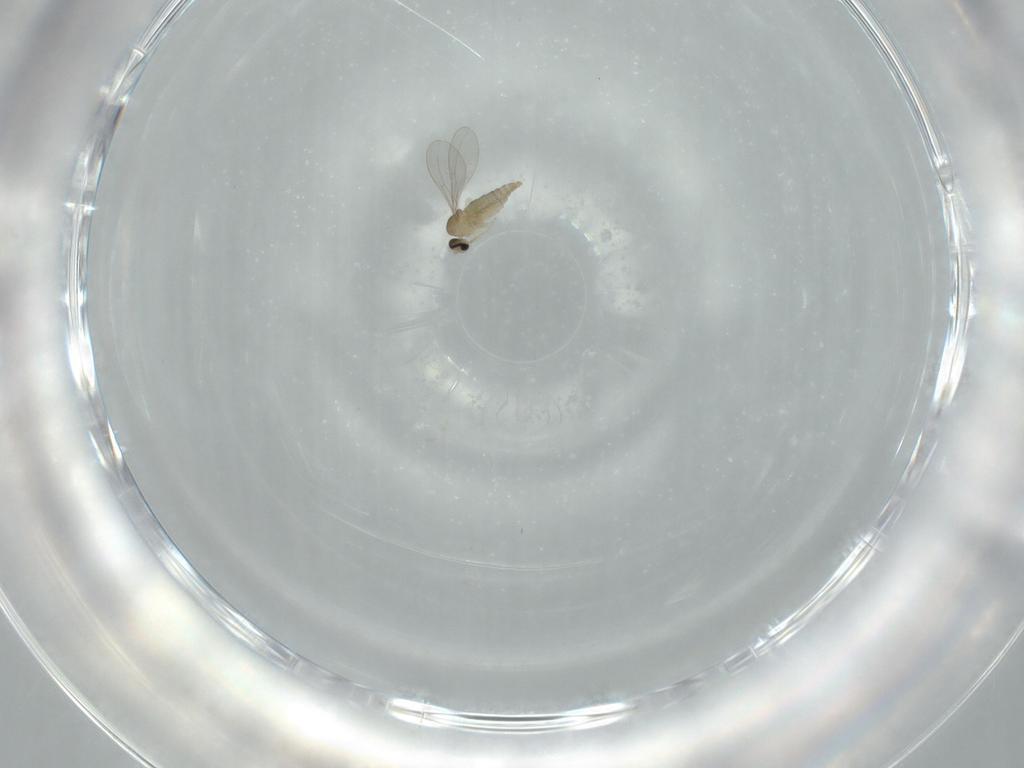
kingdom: Animalia
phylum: Arthropoda
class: Insecta
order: Diptera
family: Cecidomyiidae
